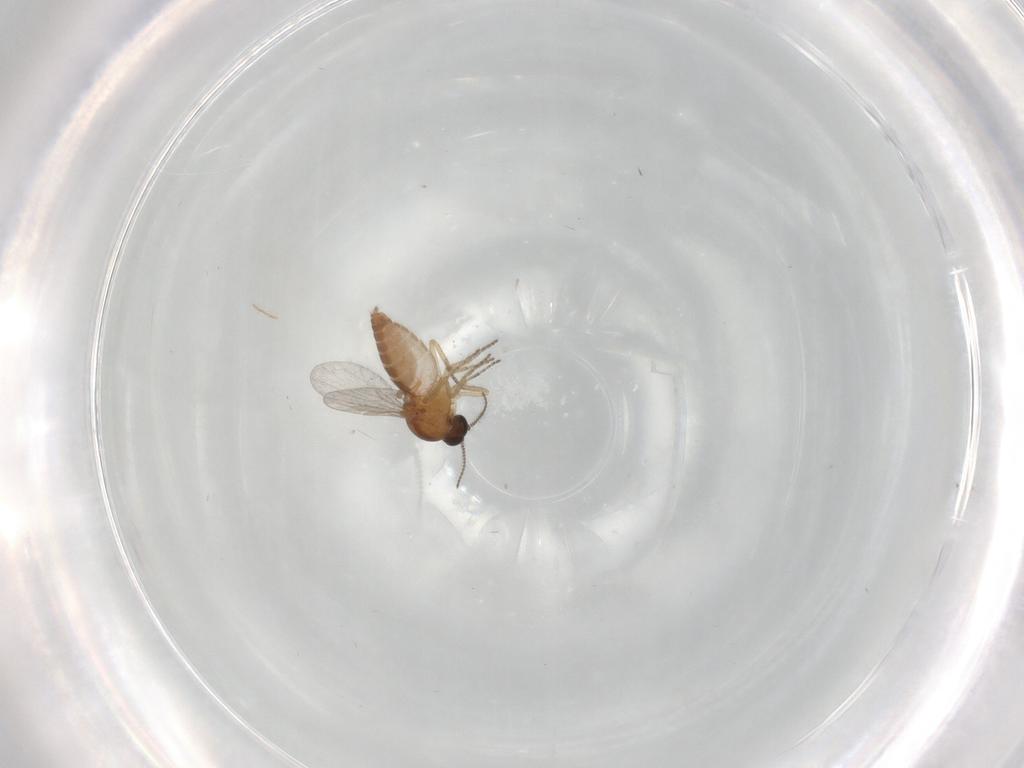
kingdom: Animalia
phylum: Arthropoda
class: Insecta
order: Diptera
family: Ceratopogonidae
